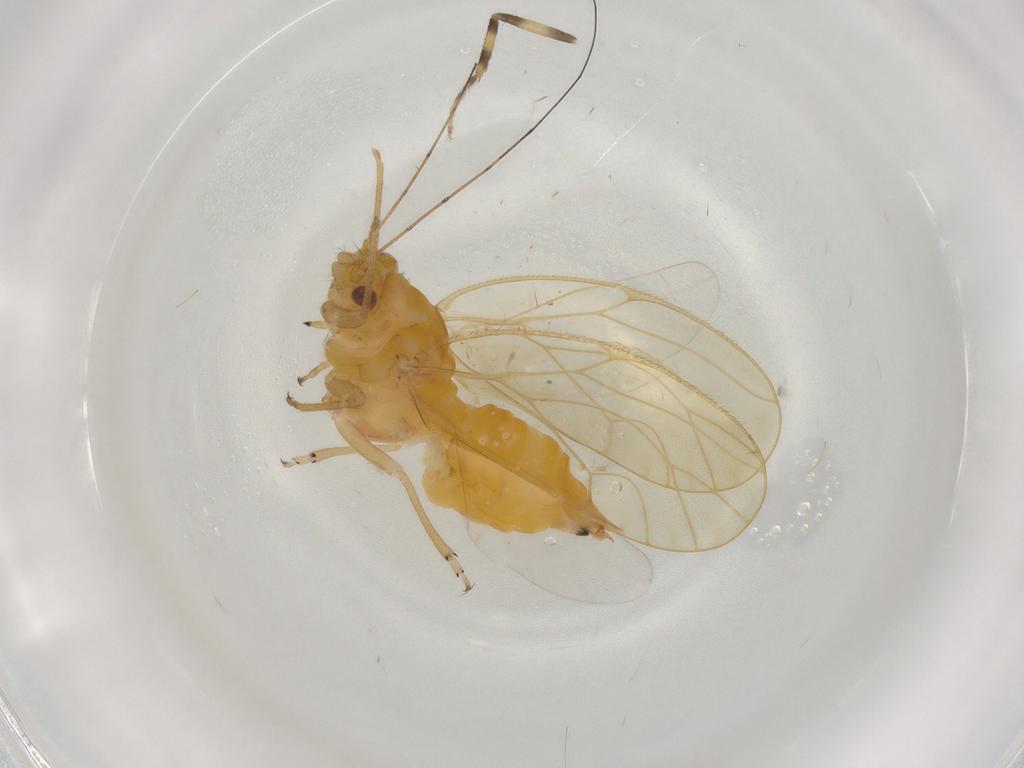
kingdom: Animalia
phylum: Arthropoda
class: Insecta
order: Hemiptera
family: Psyllidae
